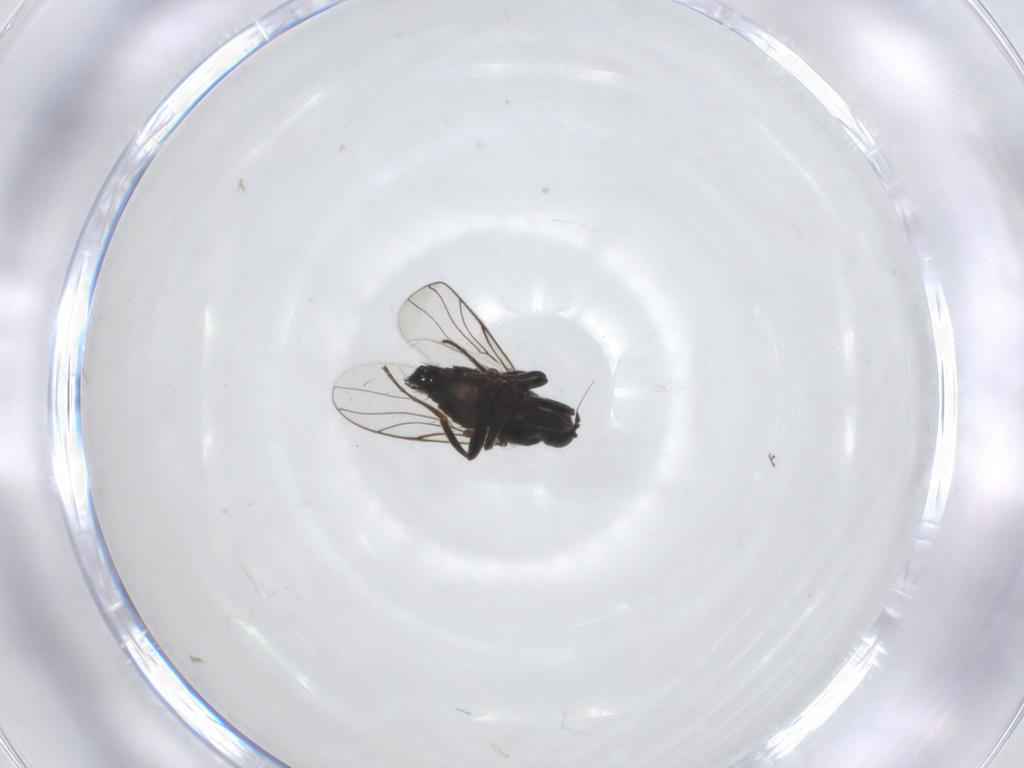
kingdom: Animalia
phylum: Arthropoda
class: Insecta
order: Diptera
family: Hybotidae
